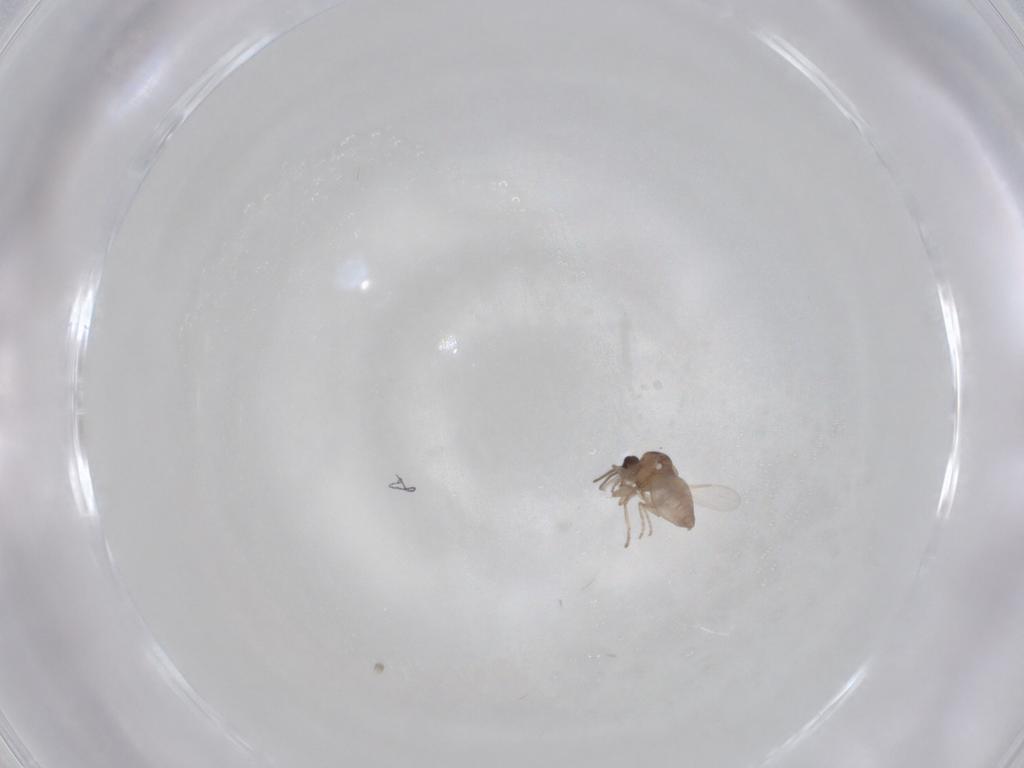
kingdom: Animalia
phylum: Arthropoda
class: Insecta
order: Diptera
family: Ceratopogonidae
